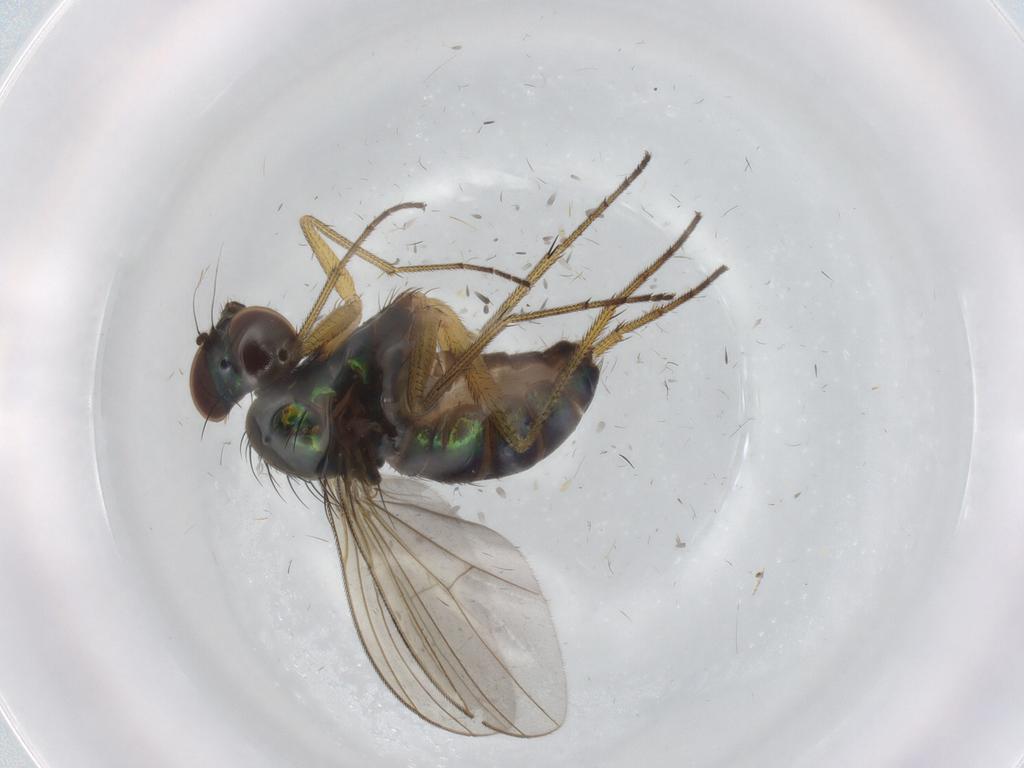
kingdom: Animalia
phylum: Arthropoda
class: Insecta
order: Diptera
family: Dolichopodidae
